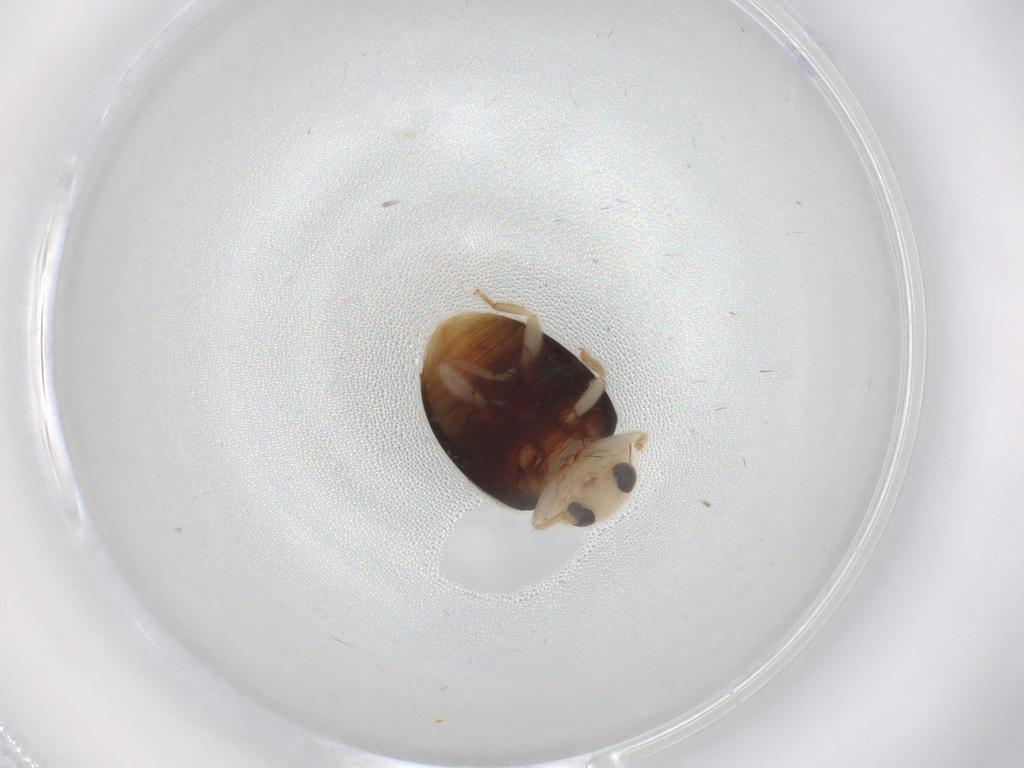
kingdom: Animalia
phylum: Arthropoda
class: Insecta
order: Coleoptera
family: Coccinellidae
